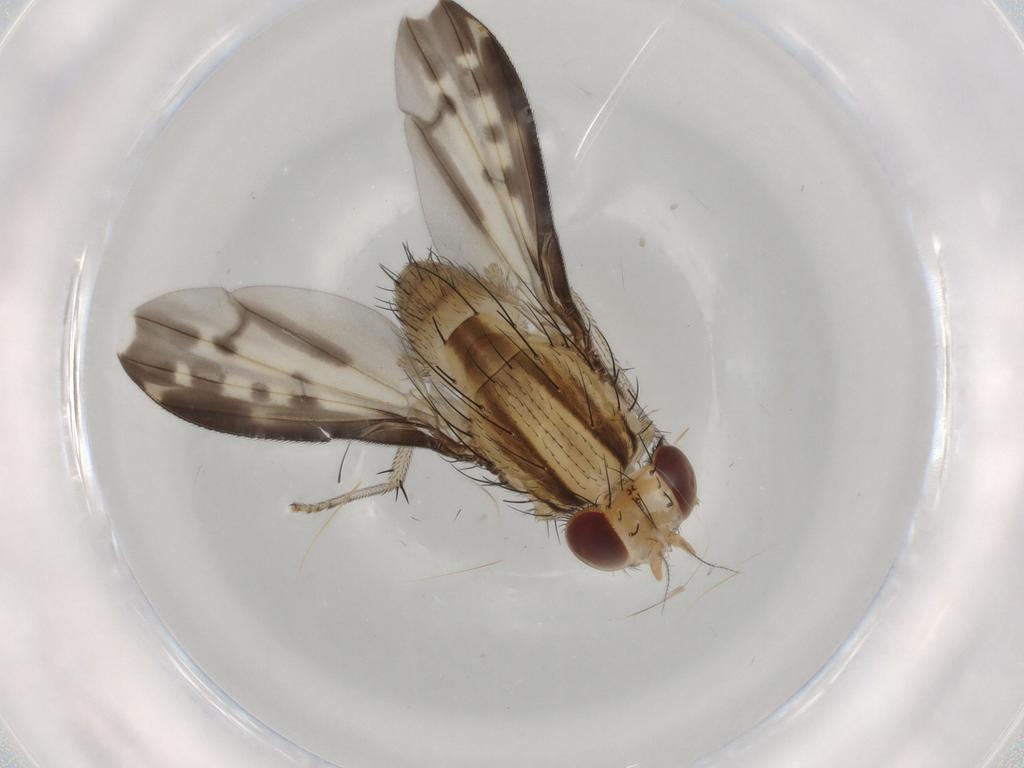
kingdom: Animalia
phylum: Arthropoda
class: Insecta
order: Diptera
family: Lauxaniidae
